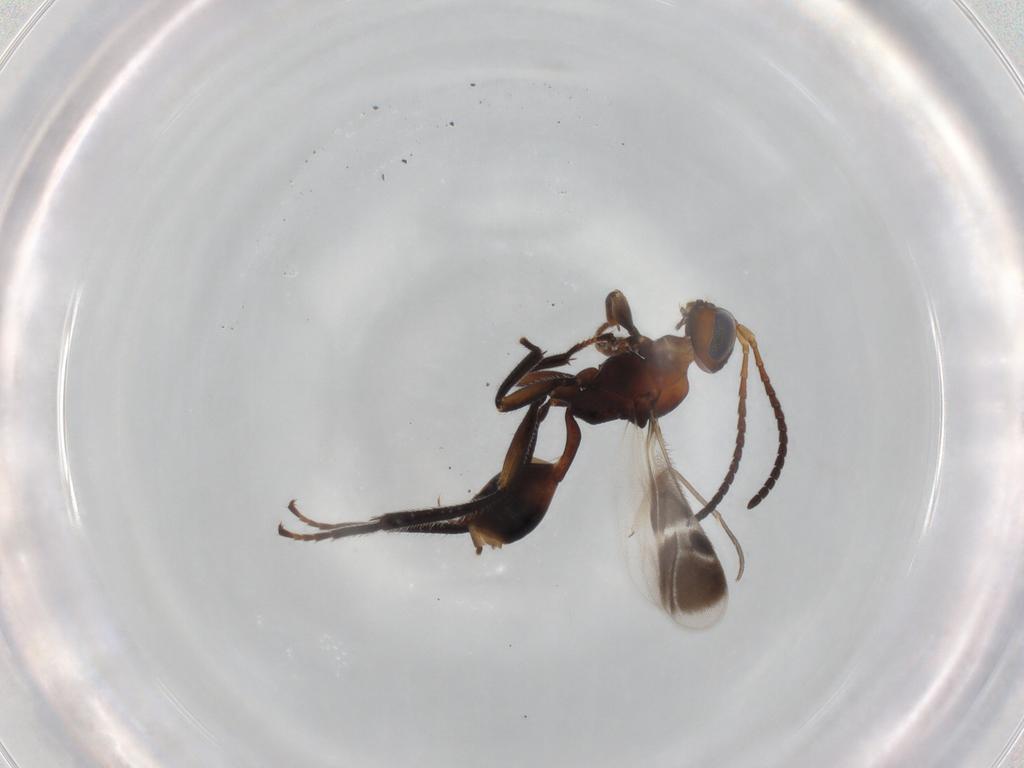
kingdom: Animalia
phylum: Arthropoda
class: Insecta
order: Hymenoptera
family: Braconidae
